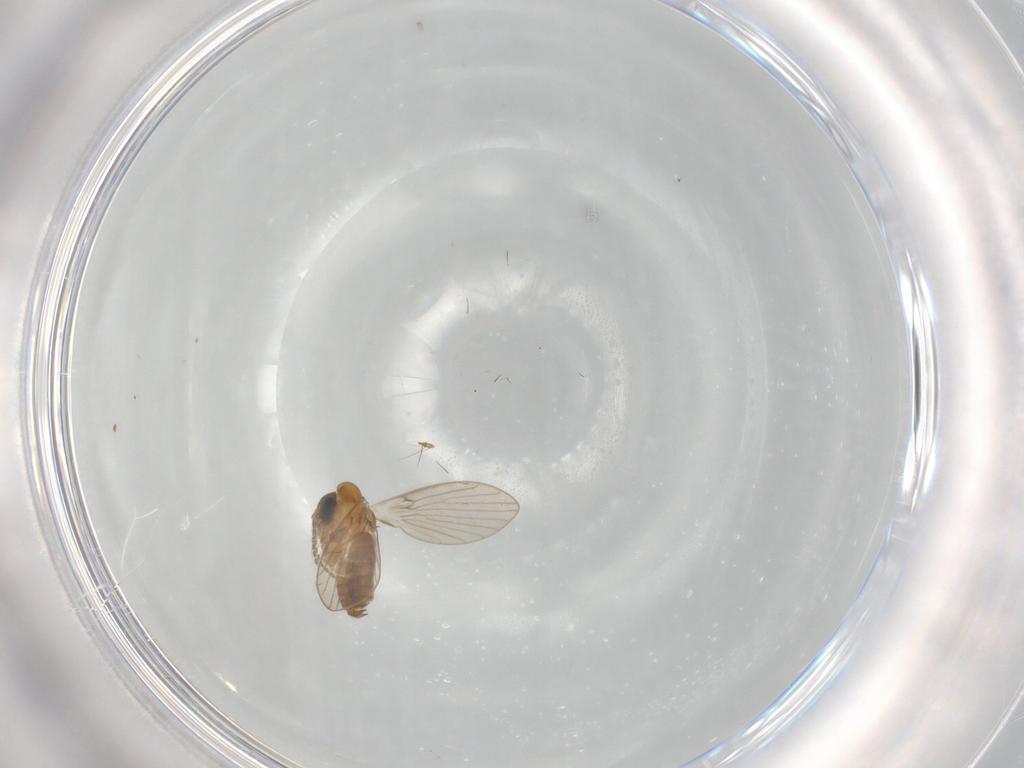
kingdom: Animalia
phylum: Arthropoda
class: Insecta
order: Diptera
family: Cecidomyiidae
